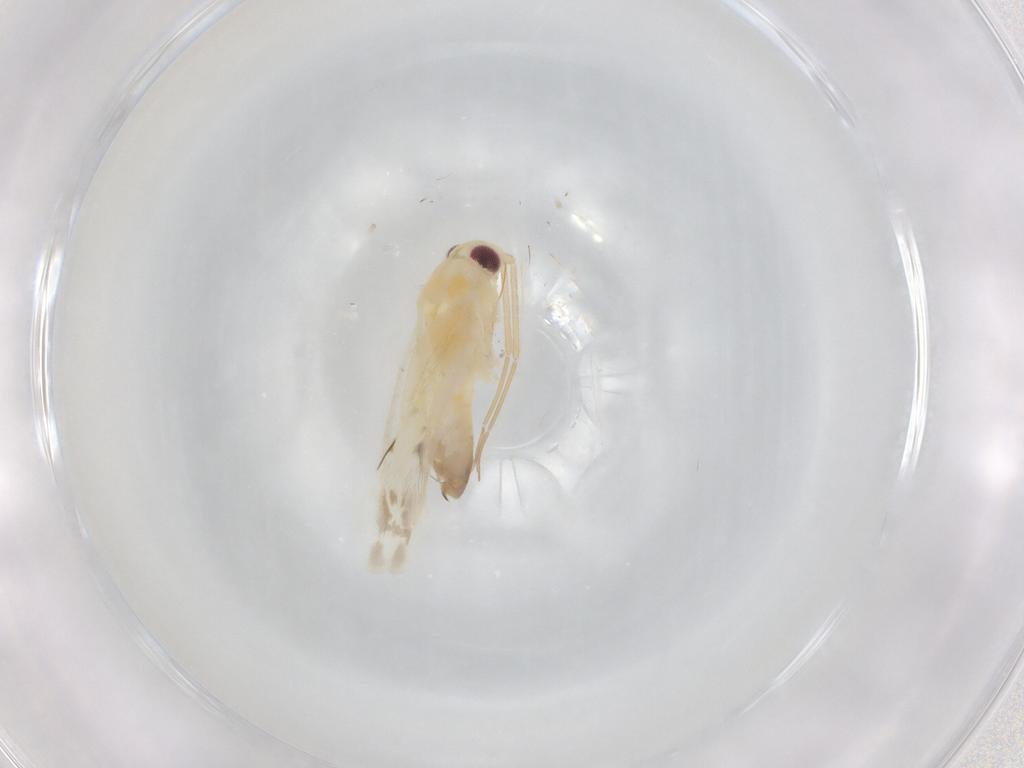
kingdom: Animalia
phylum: Arthropoda
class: Insecta
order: Hemiptera
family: Miridae
